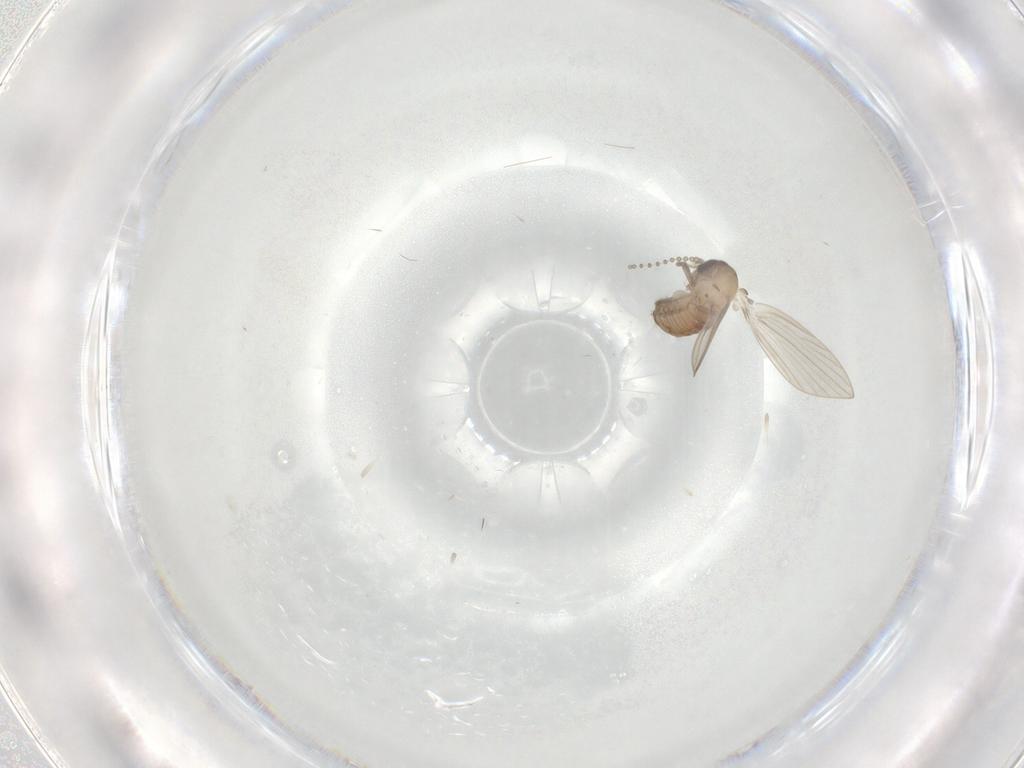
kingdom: Animalia
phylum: Arthropoda
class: Insecta
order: Diptera
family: Psychodidae
